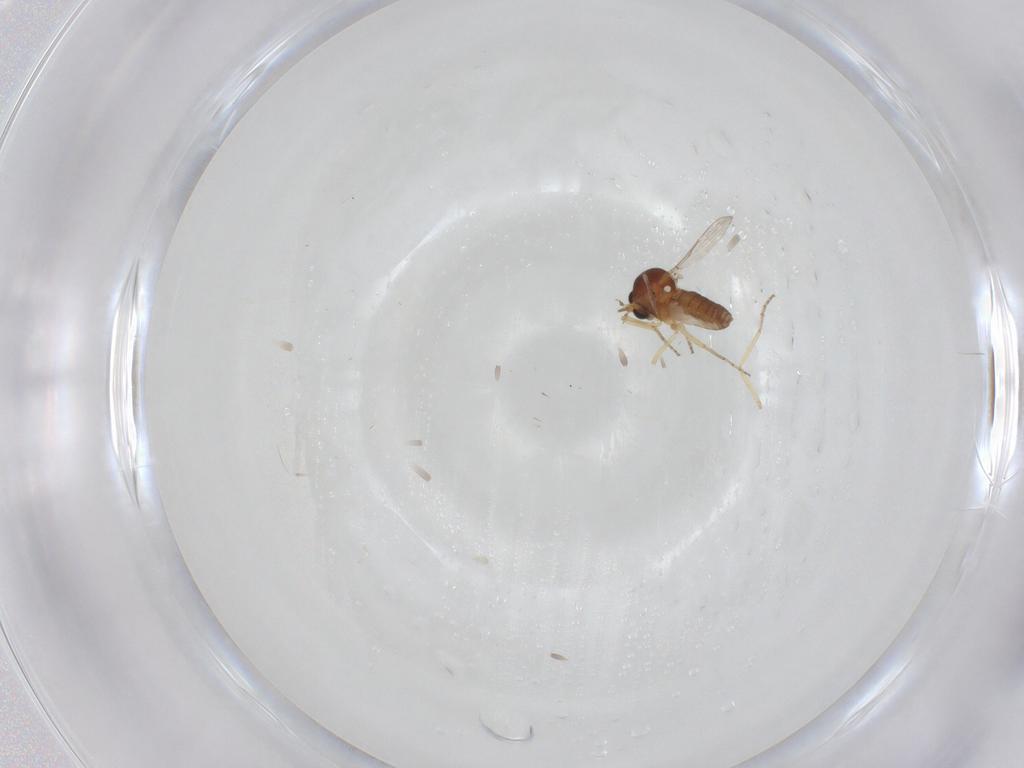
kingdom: Animalia
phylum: Arthropoda
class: Insecta
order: Diptera
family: Ceratopogonidae
